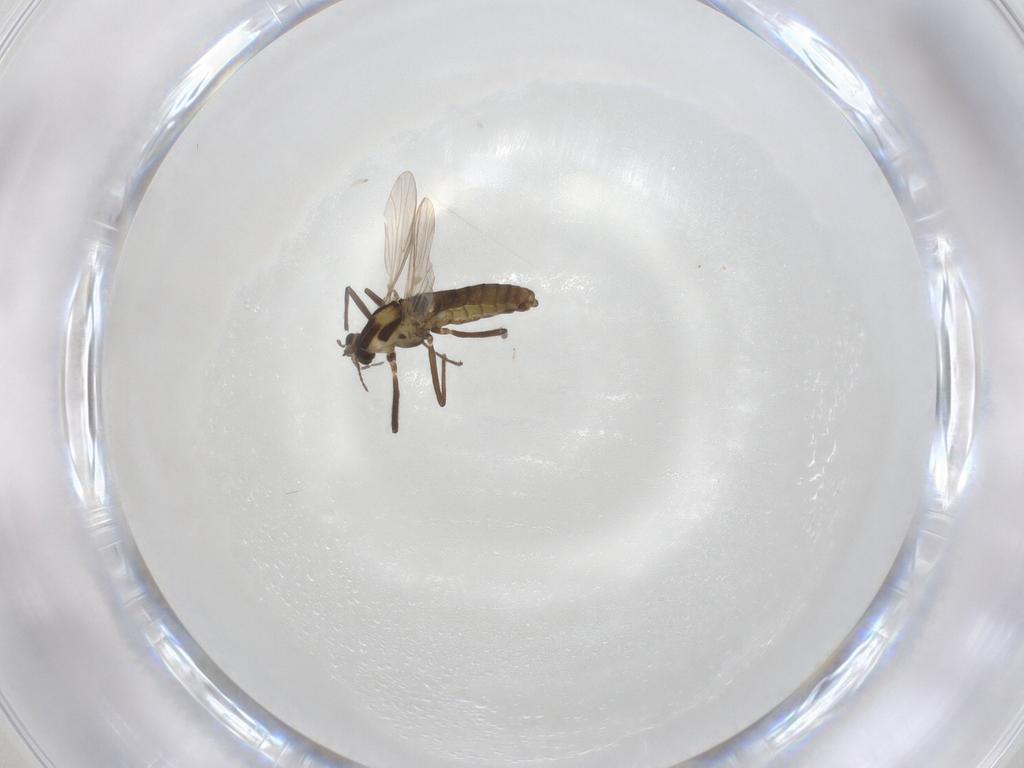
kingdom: Animalia
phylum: Arthropoda
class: Insecta
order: Diptera
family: Chironomidae
